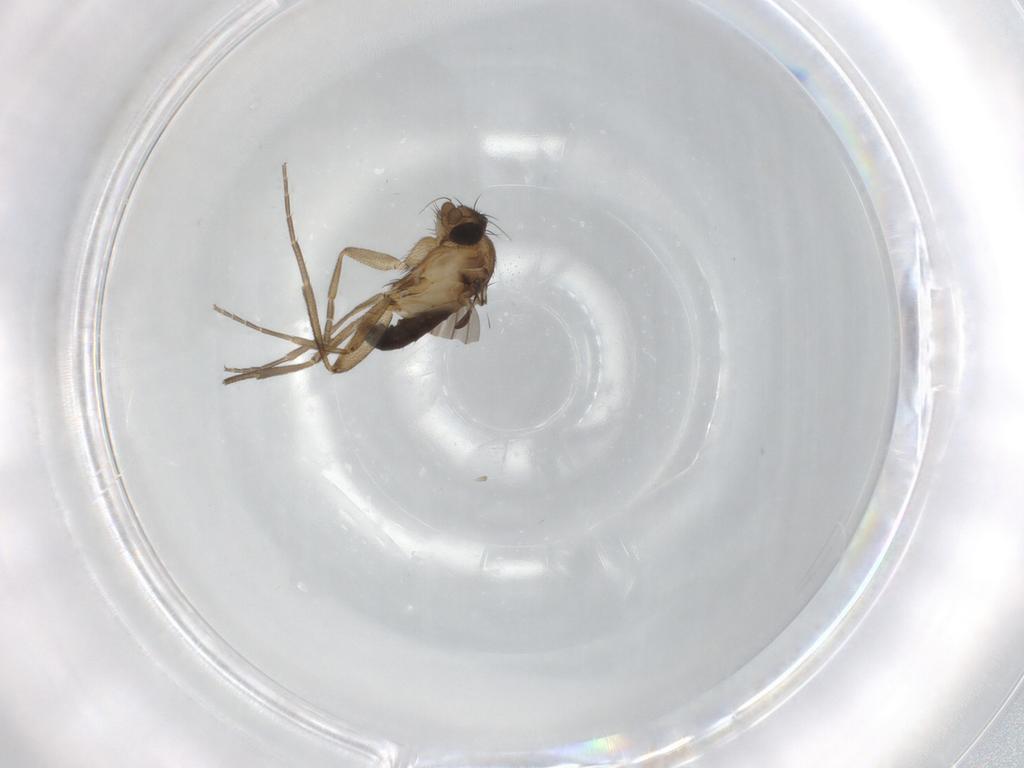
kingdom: Animalia
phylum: Arthropoda
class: Insecta
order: Diptera
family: Phoridae
